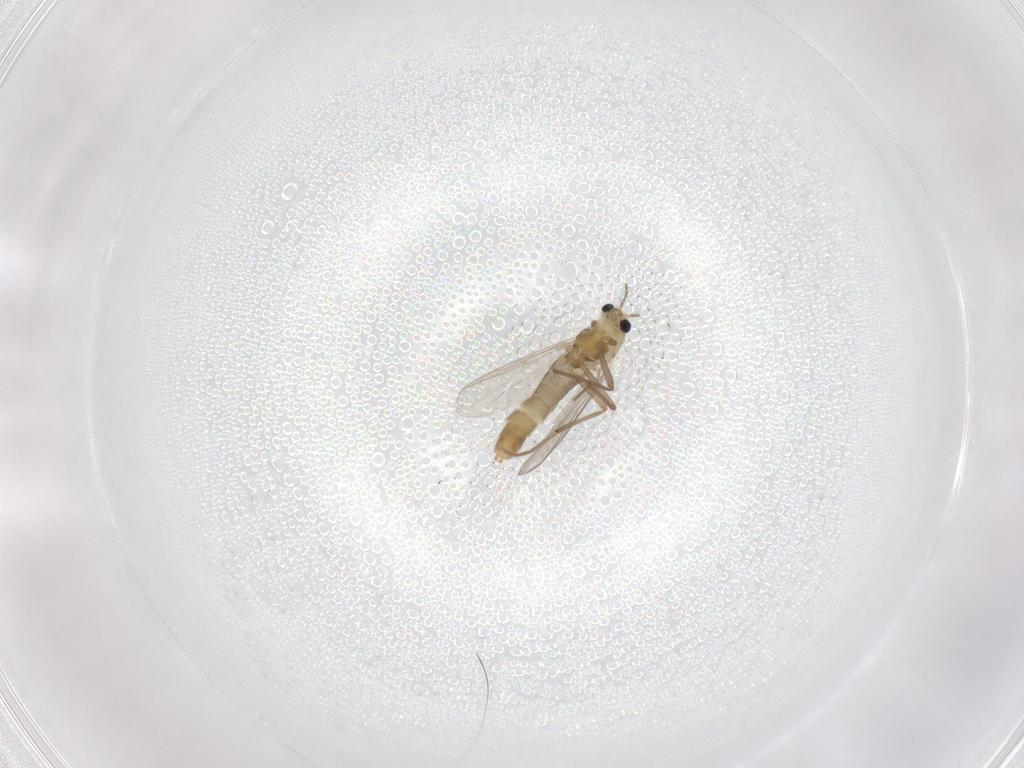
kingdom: Animalia
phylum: Arthropoda
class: Insecta
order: Diptera
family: Chironomidae
